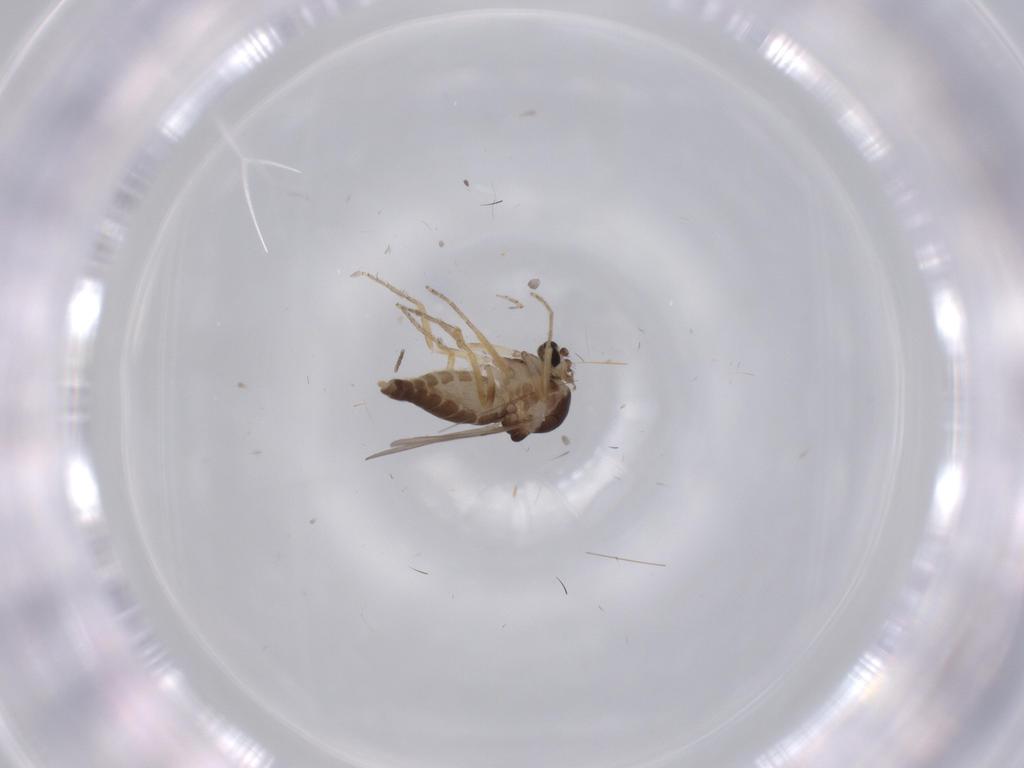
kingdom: Animalia
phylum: Arthropoda
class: Insecta
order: Diptera
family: Ceratopogonidae
